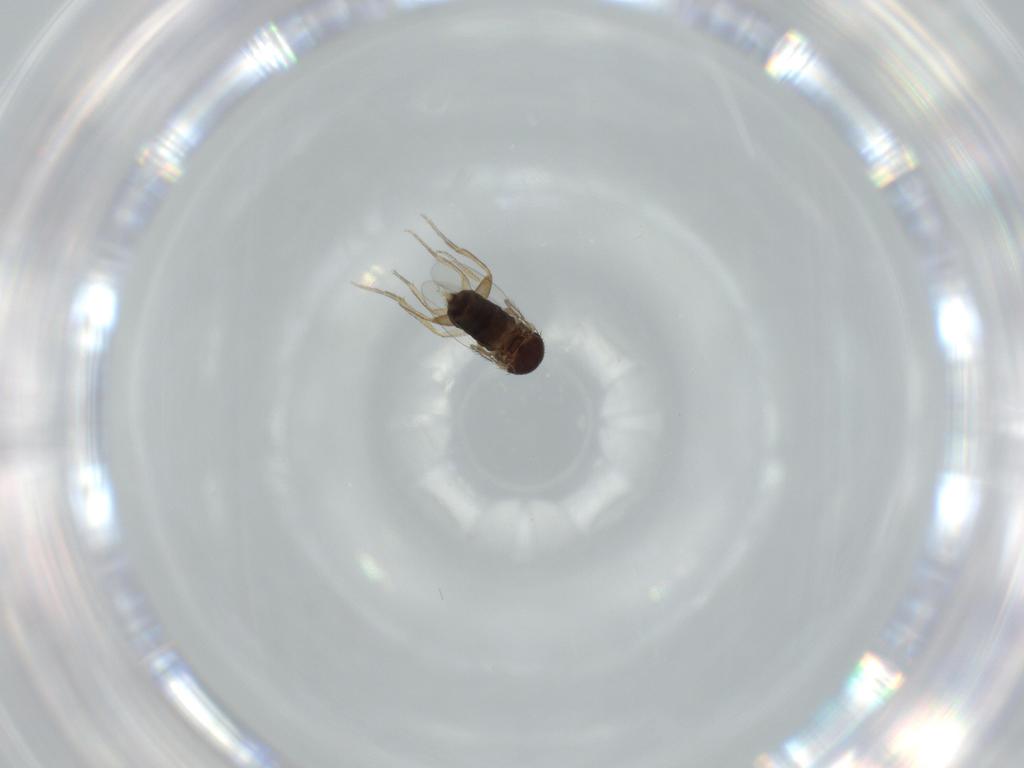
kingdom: Animalia
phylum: Arthropoda
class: Insecta
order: Diptera
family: Phoridae
